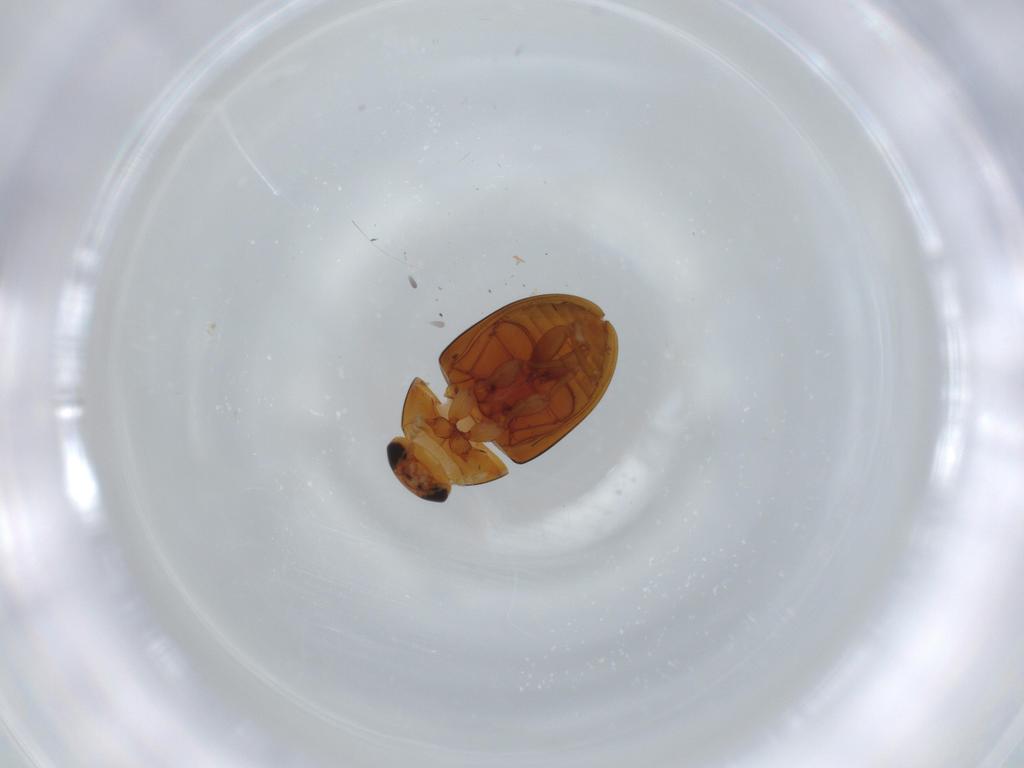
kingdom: Animalia
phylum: Arthropoda
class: Insecta
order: Coleoptera
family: Phalacridae
